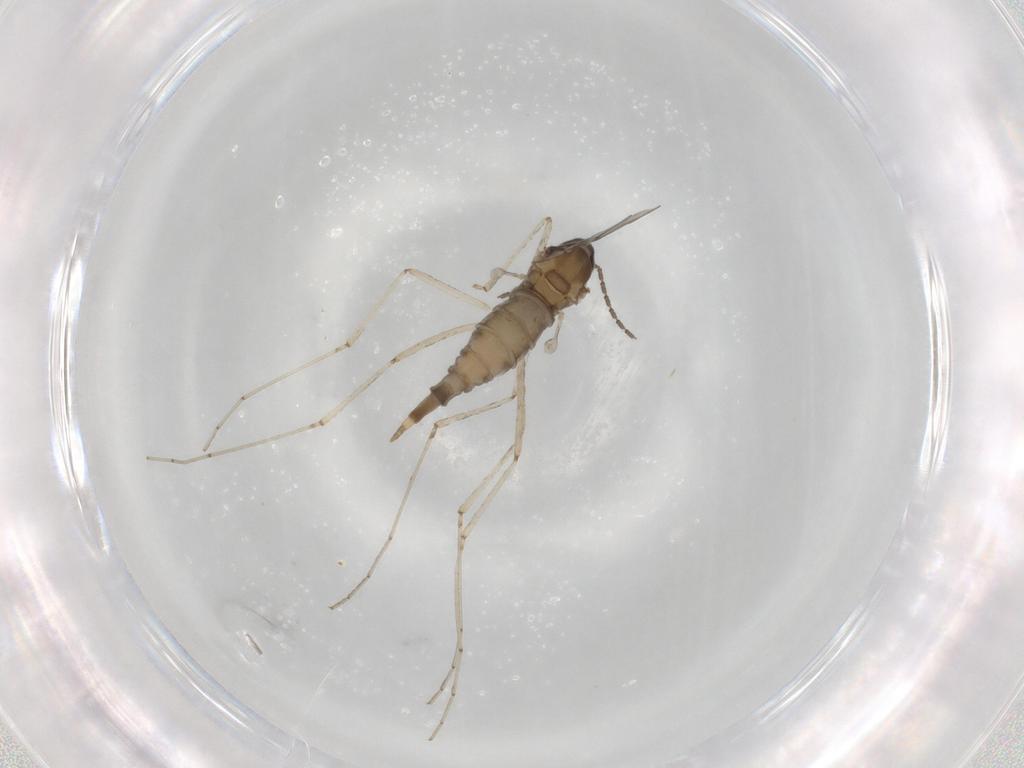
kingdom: Animalia
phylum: Arthropoda
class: Insecta
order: Diptera
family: Cecidomyiidae
